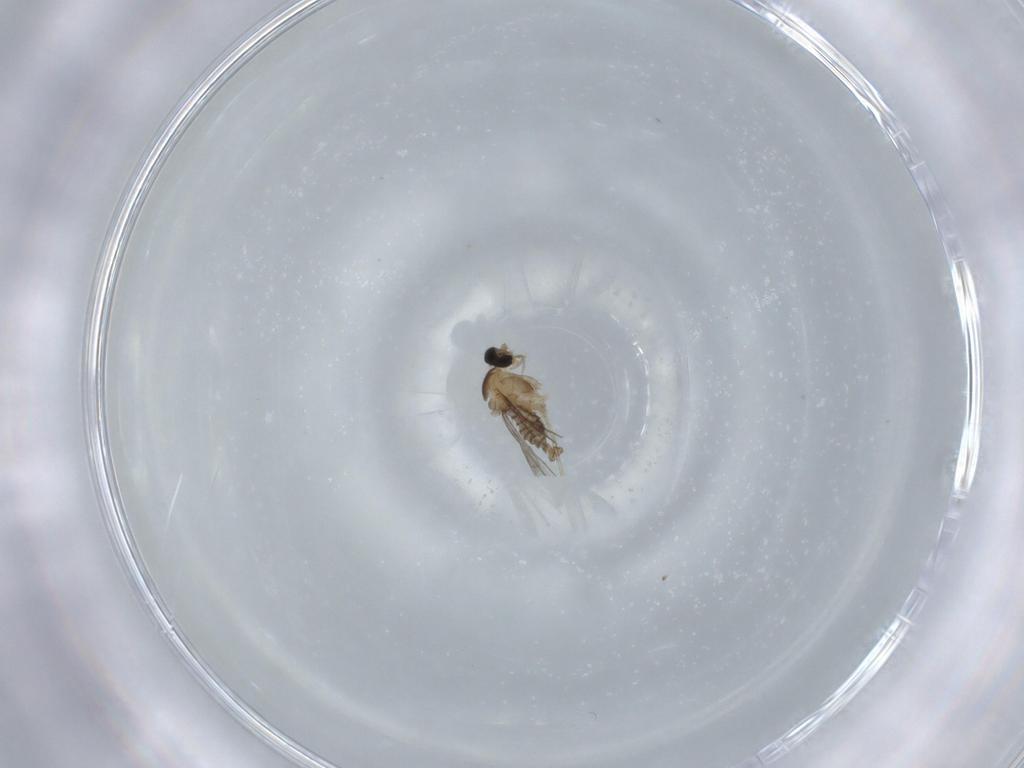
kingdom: Animalia
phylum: Arthropoda
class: Insecta
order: Diptera
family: Cecidomyiidae
